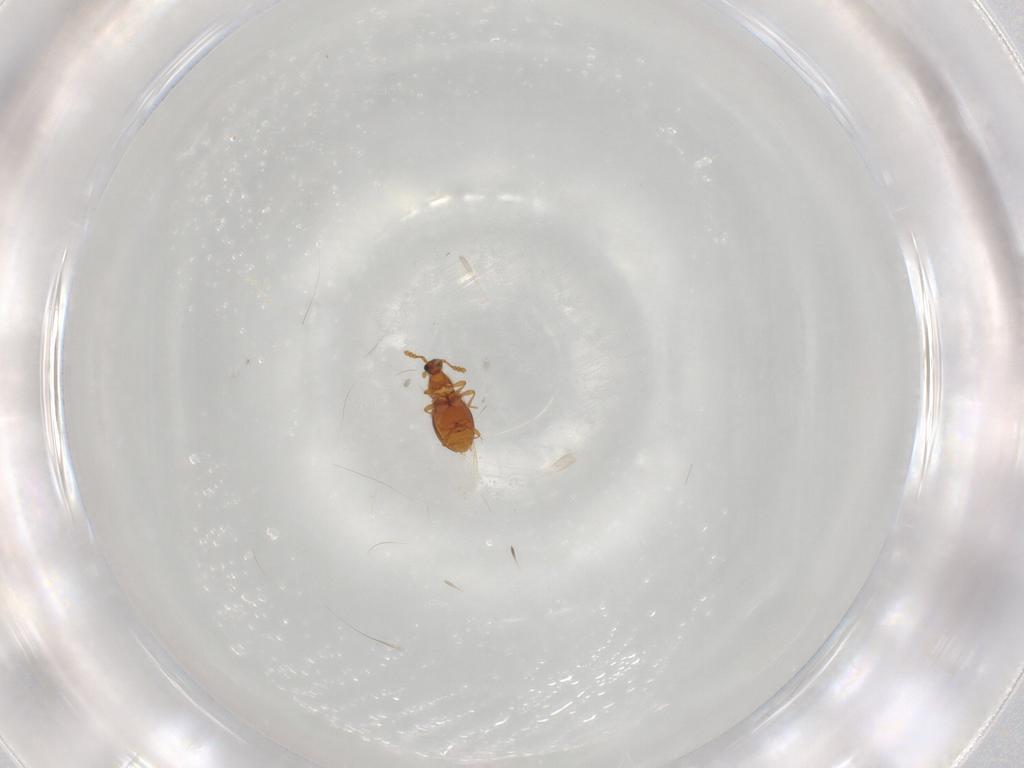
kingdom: Animalia
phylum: Arthropoda
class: Insecta
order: Coleoptera
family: Staphylinidae
